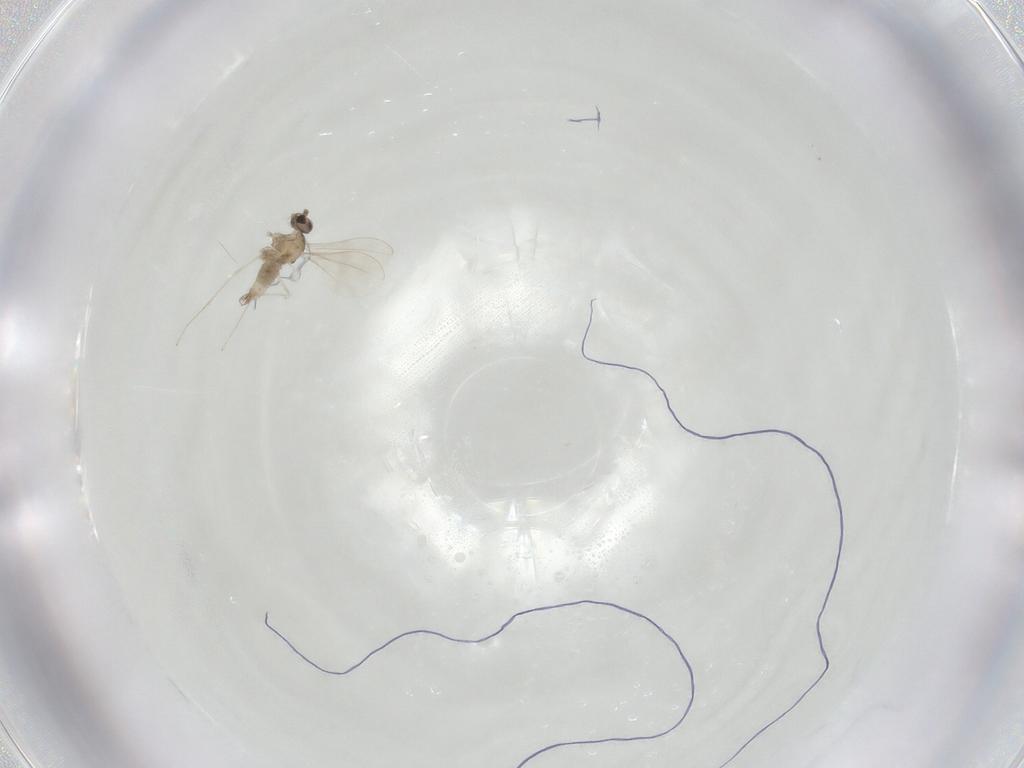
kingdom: Animalia
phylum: Arthropoda
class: Insecta
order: Diptera
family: Cecidomyiidae
